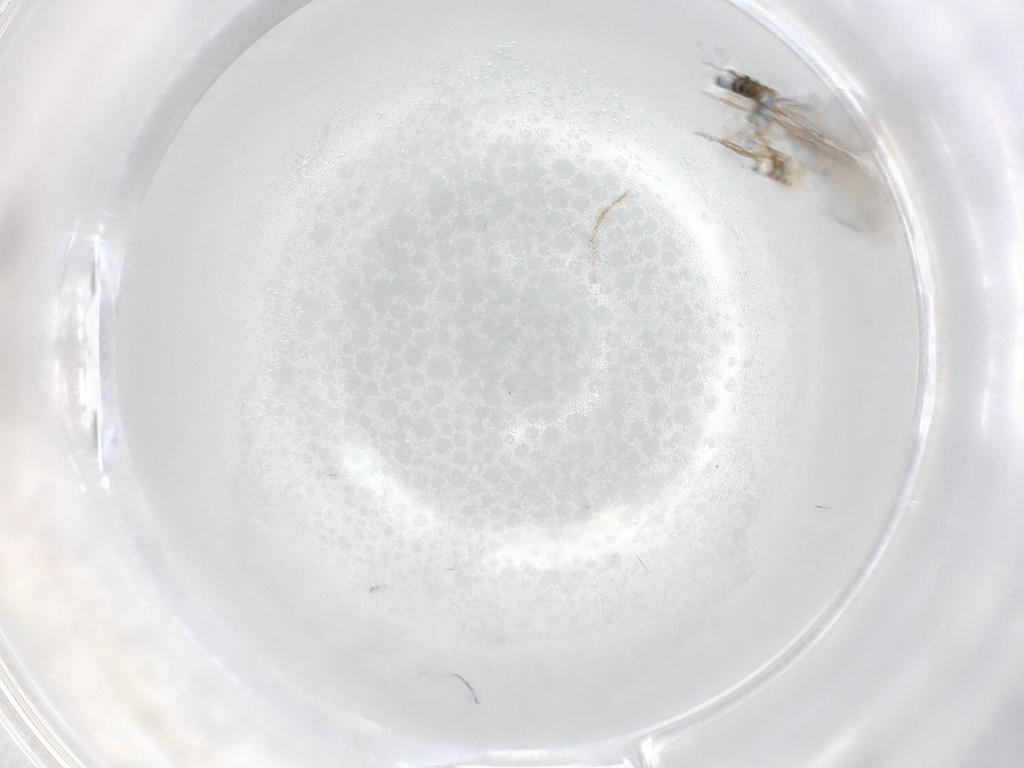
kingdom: Animalia
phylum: Arthropoda
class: Insecta
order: Hymenoptera
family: Formicidae
